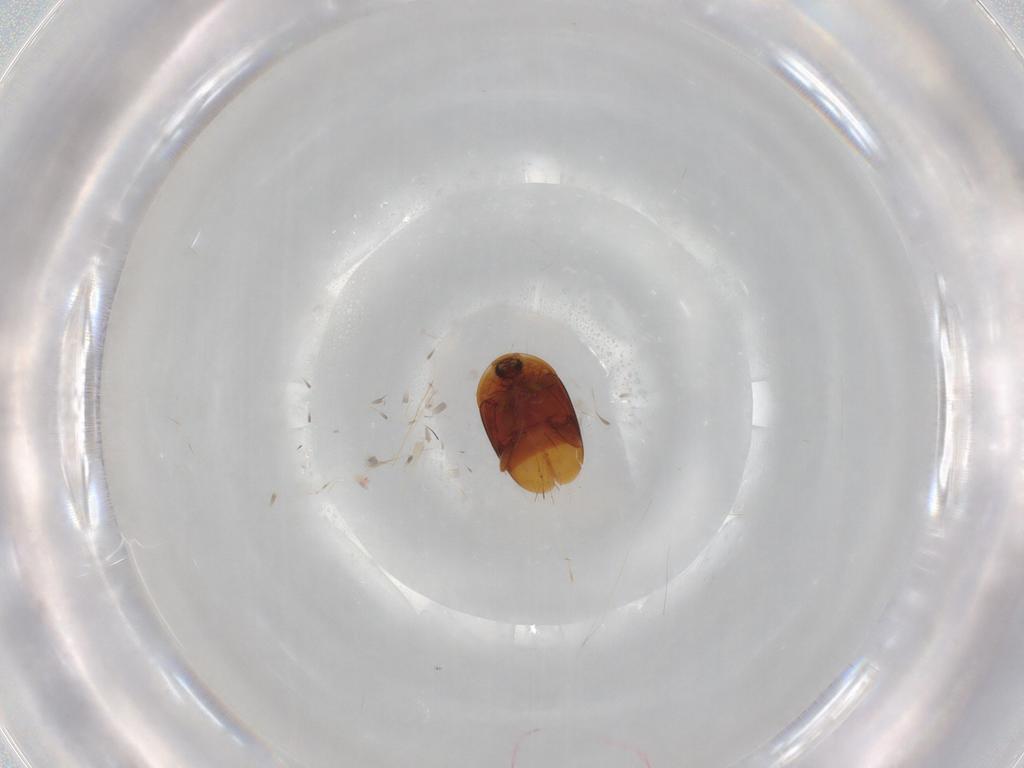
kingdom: Animalia
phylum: Arthropoda
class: Insecta
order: Coleoptera
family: Corylophidae
